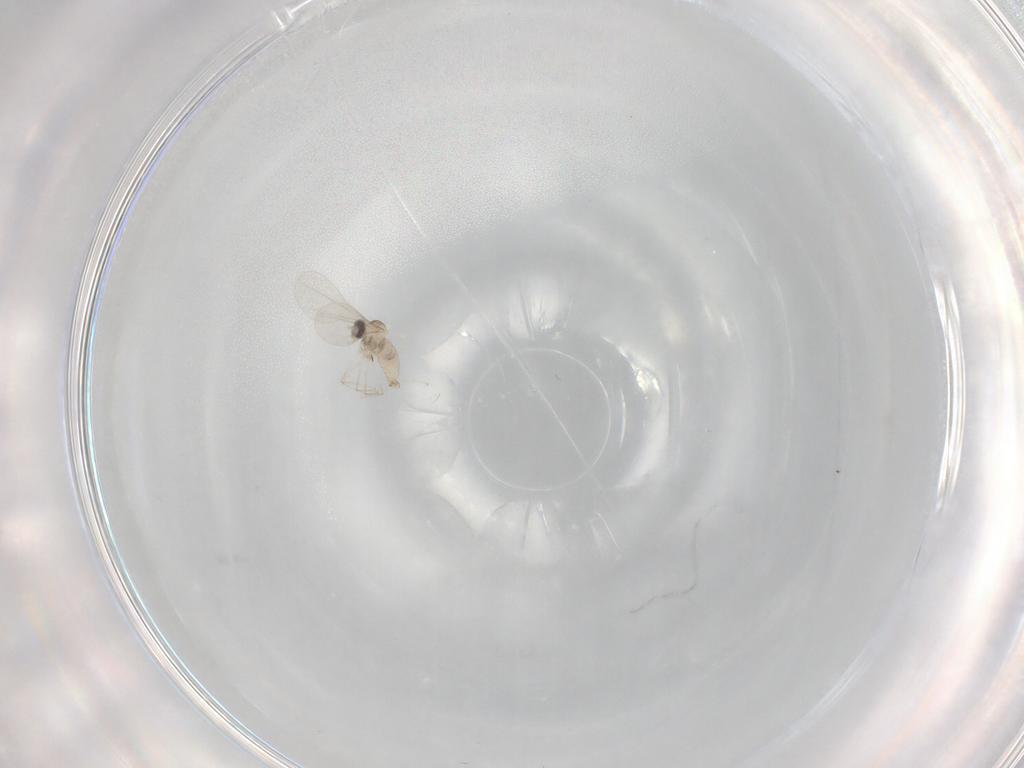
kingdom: Animalia
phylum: Arthropoda
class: Insecta
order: Diptera
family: Cecidomyiidae
